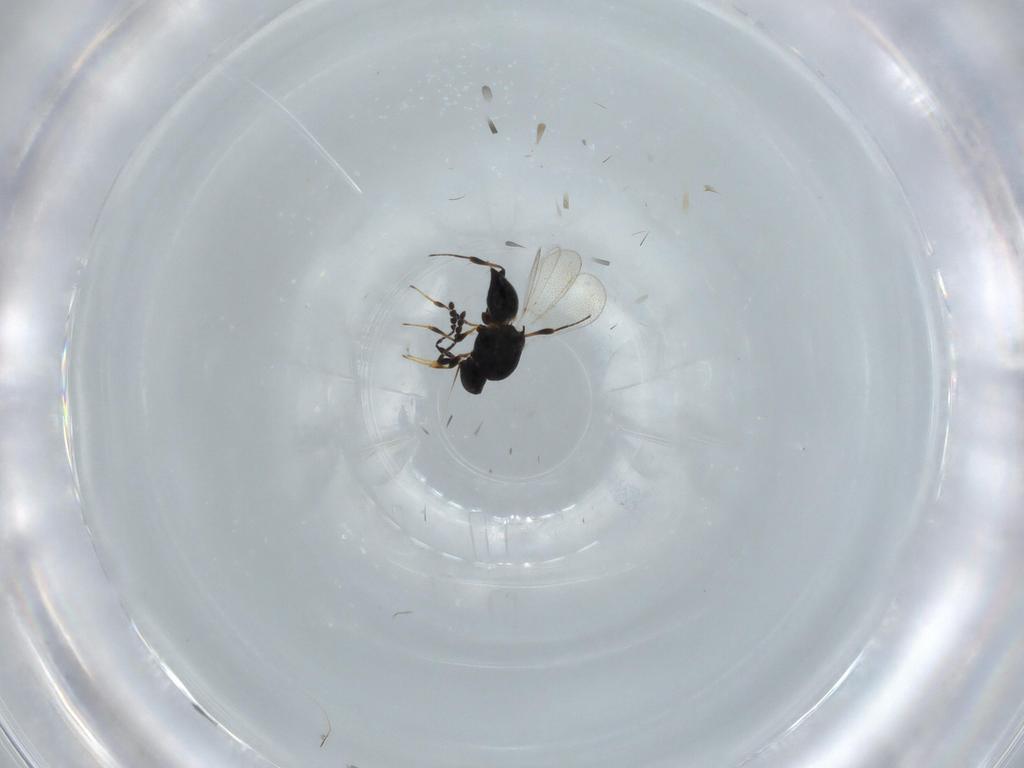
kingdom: Animalia
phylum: Arthropoda
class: Insecta
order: Hymenoptera
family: Platygastridae
